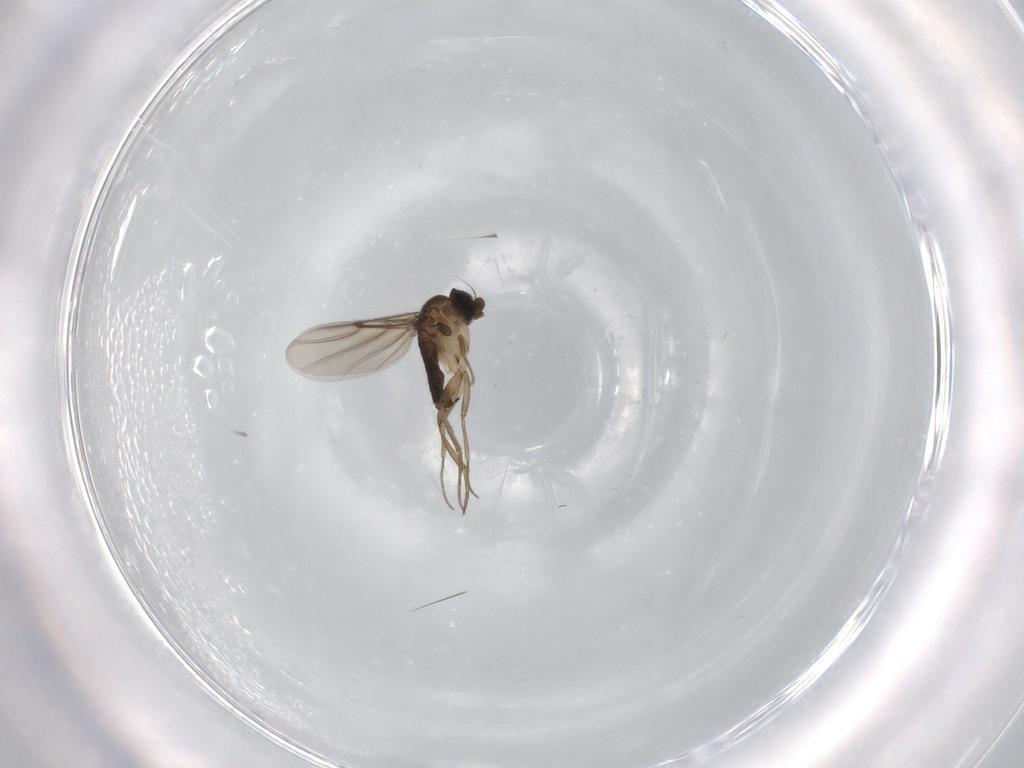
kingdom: Animalia
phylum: Arthropoda
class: Insecta
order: Diptera
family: Phoridae
